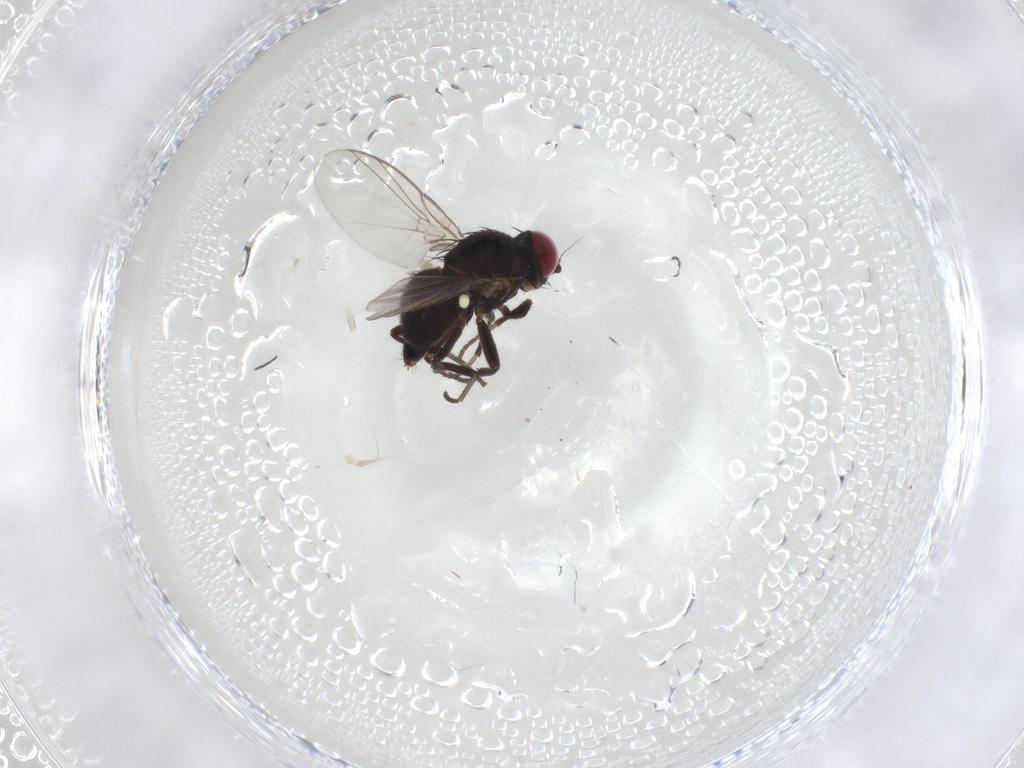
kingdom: Animalia
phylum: Arthropoda
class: Insecta
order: Diptera
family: Agromyzidae
